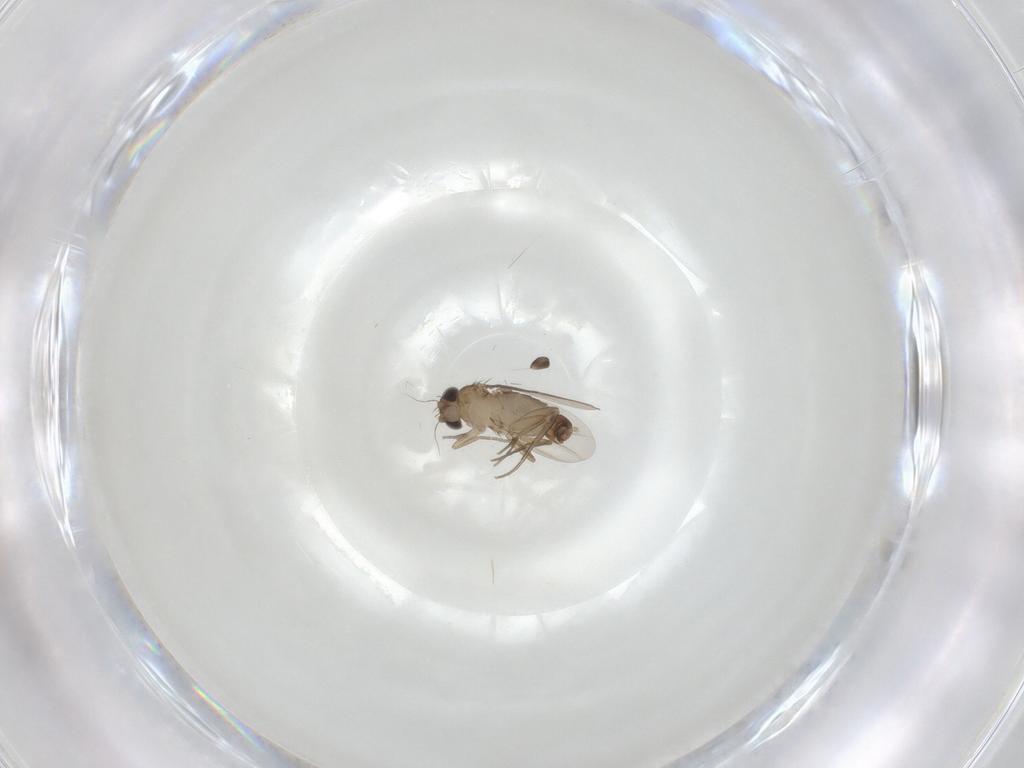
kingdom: Animalia
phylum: Arthropoda
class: Insecta
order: Diptera
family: Phoridae
